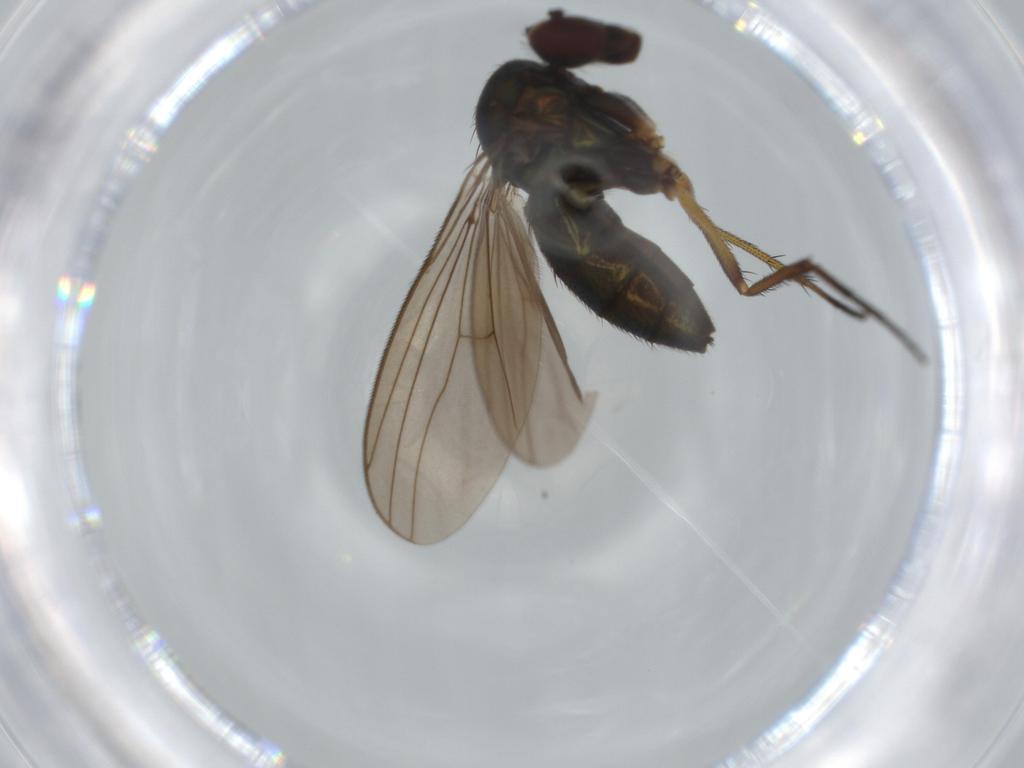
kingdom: Animalia
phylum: Arthropoda
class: Insecta
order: Diptera
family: Dolichopodidae
